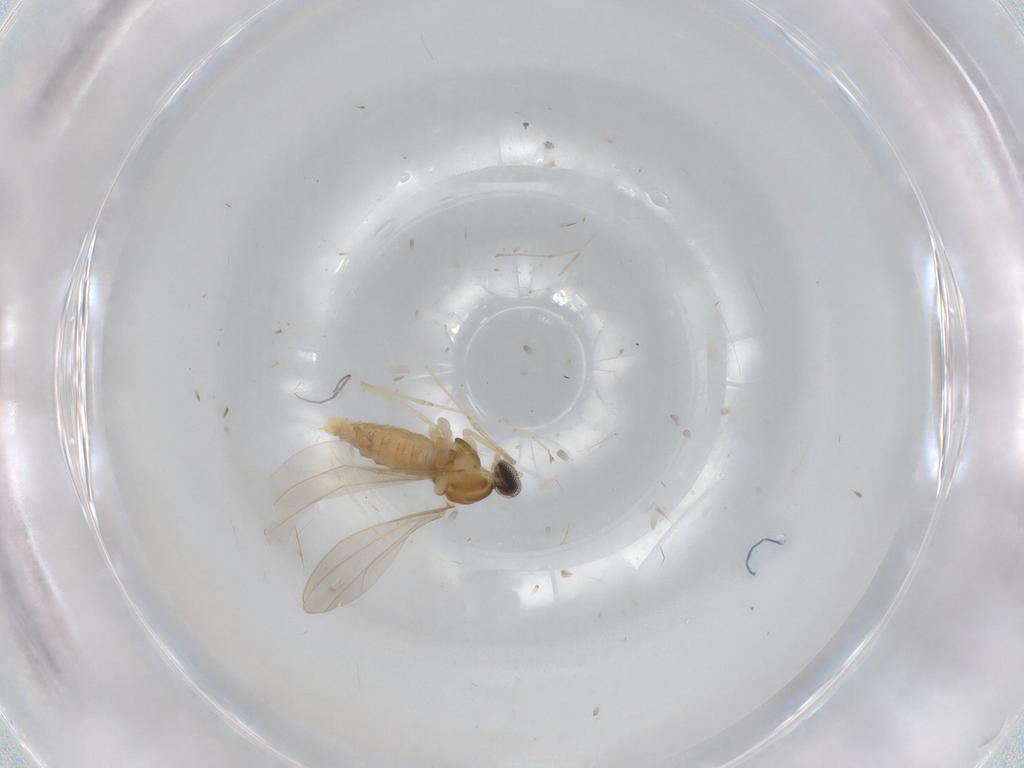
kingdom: Animalia
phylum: Arthropoda
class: Insecta
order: Diptera
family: Cecidomyiidae
